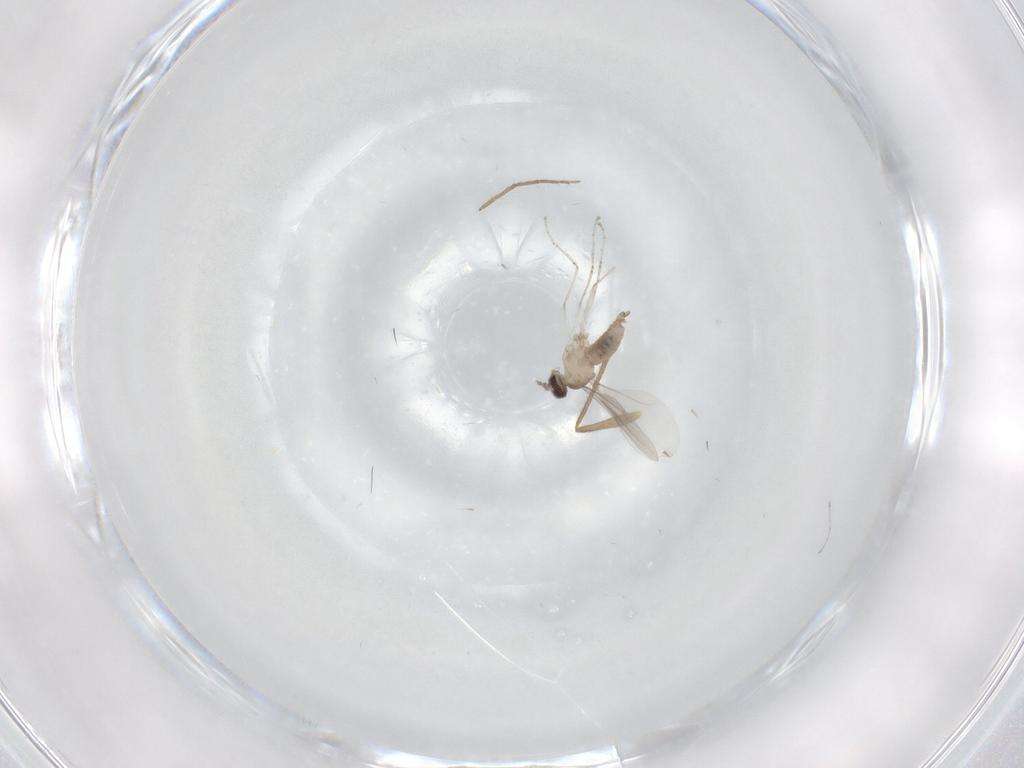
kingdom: Animalia
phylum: Arthropoda
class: Insecta
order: Diptera
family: Chironomidae
